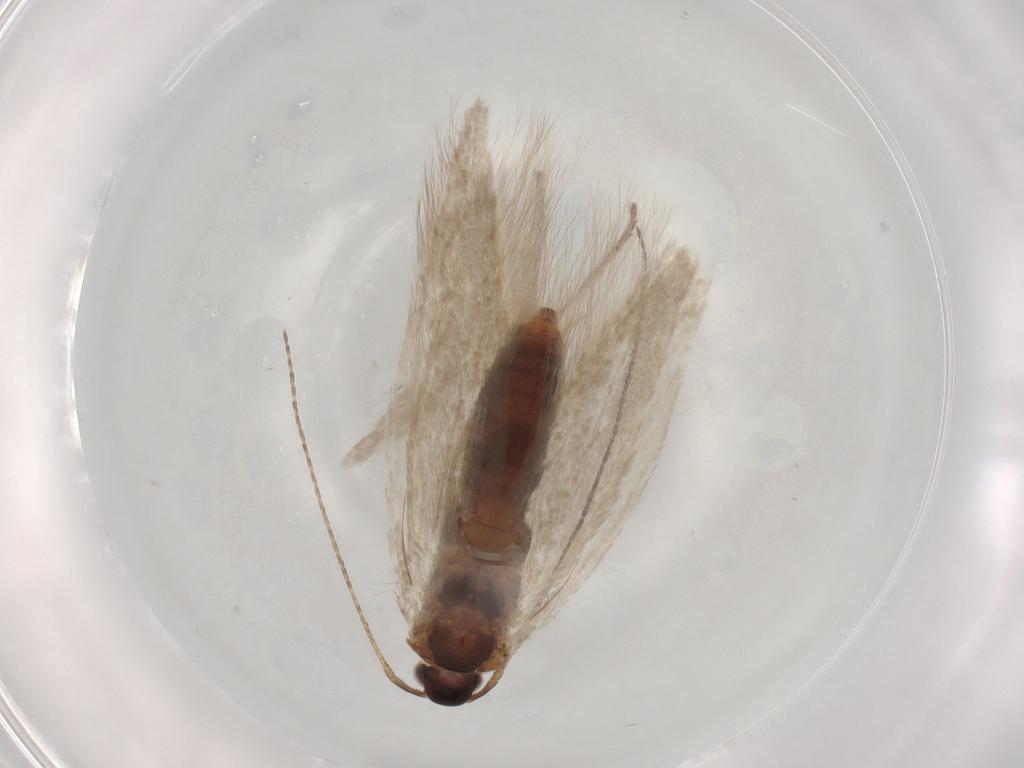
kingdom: Animalia
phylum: Arthropoda
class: Insecta
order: Lepidoptera
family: Erebidae
